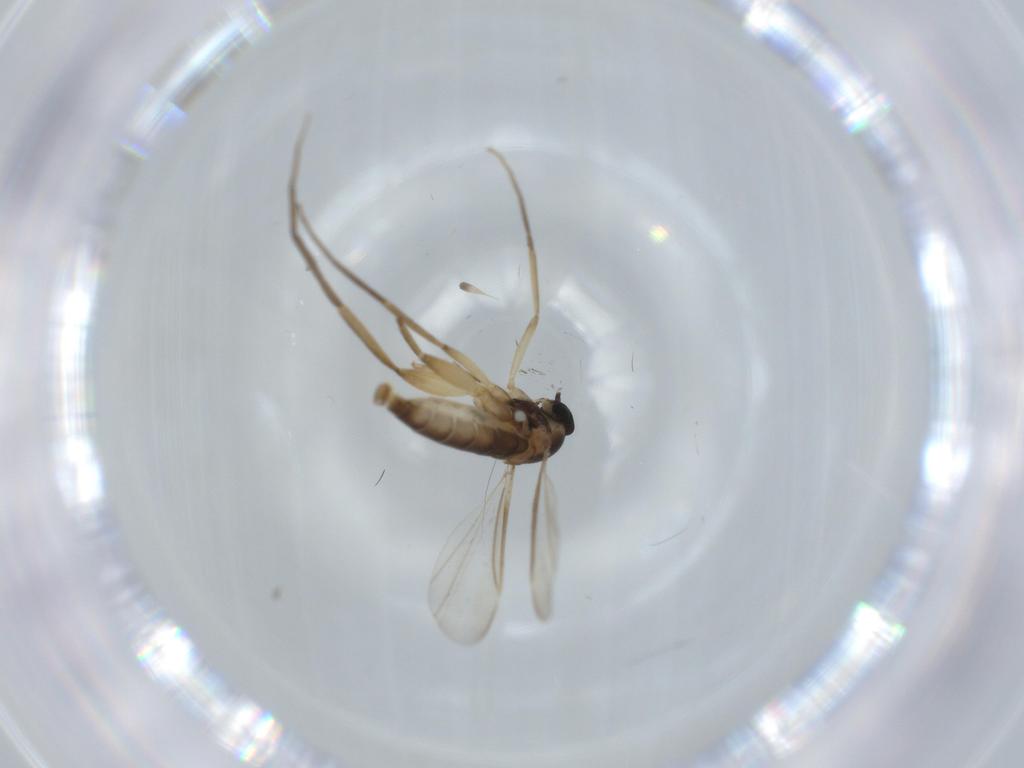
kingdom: Animalia
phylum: Arthropoda
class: Insecta
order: Diptera
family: Cecidomyiidae
